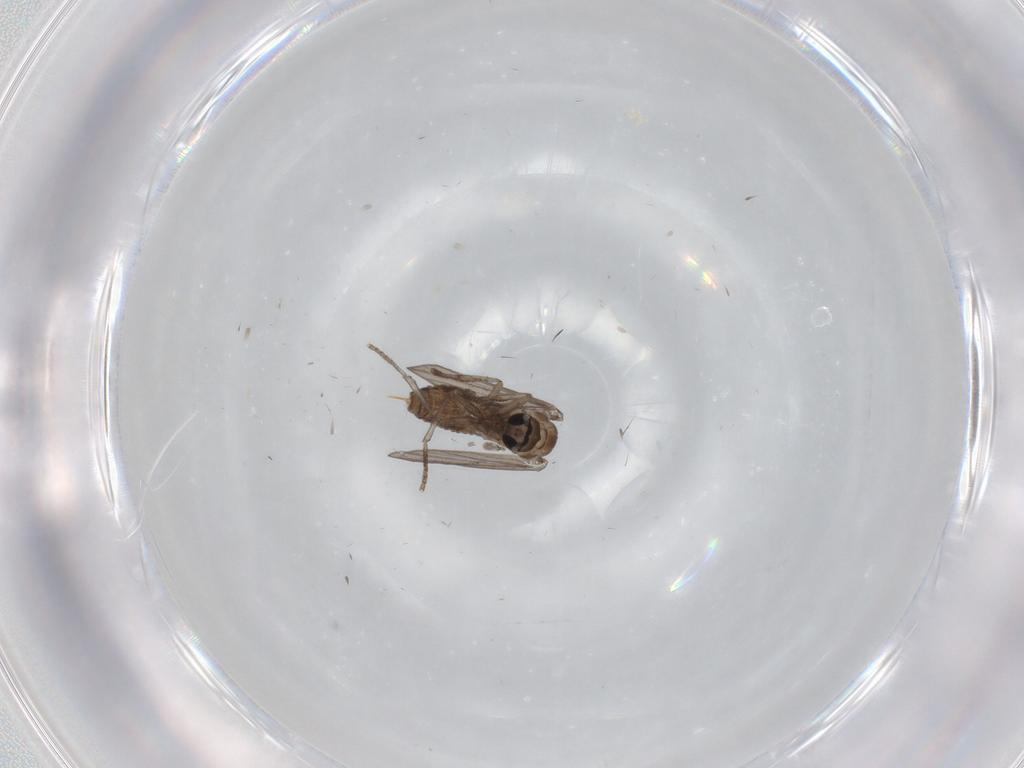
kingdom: Animalia
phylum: Arthropoda
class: Insecta
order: Diptera
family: Psychodidae
